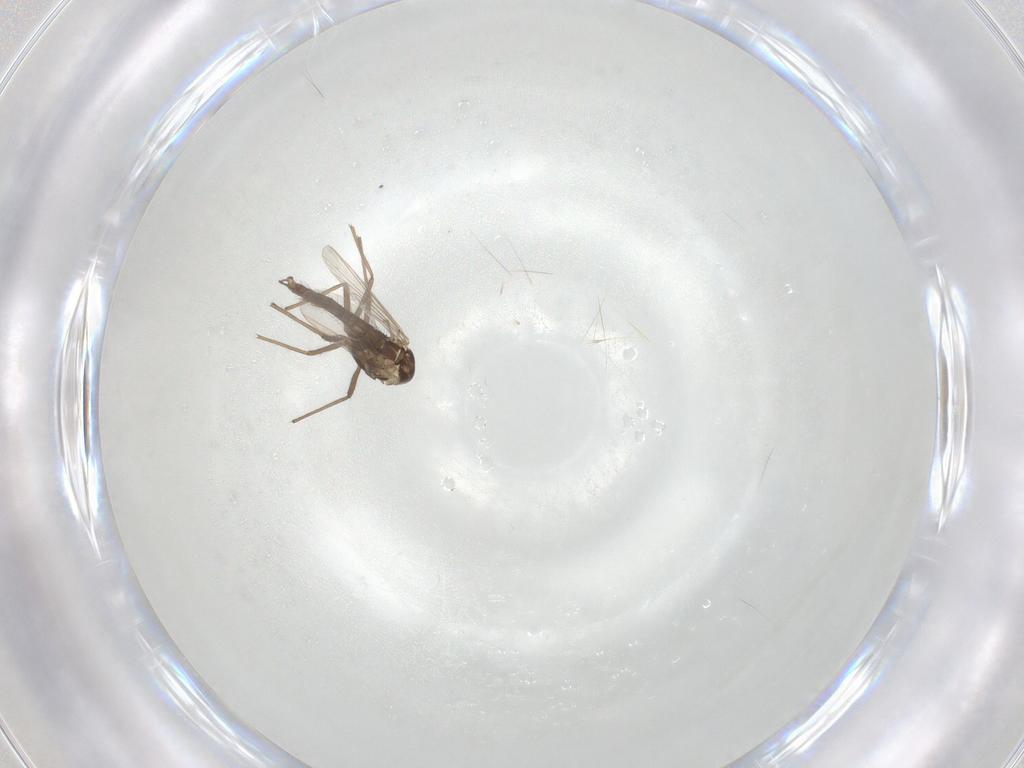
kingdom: Animalia
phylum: Arthropoda
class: Insecta
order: Diptera
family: Chironomidae
